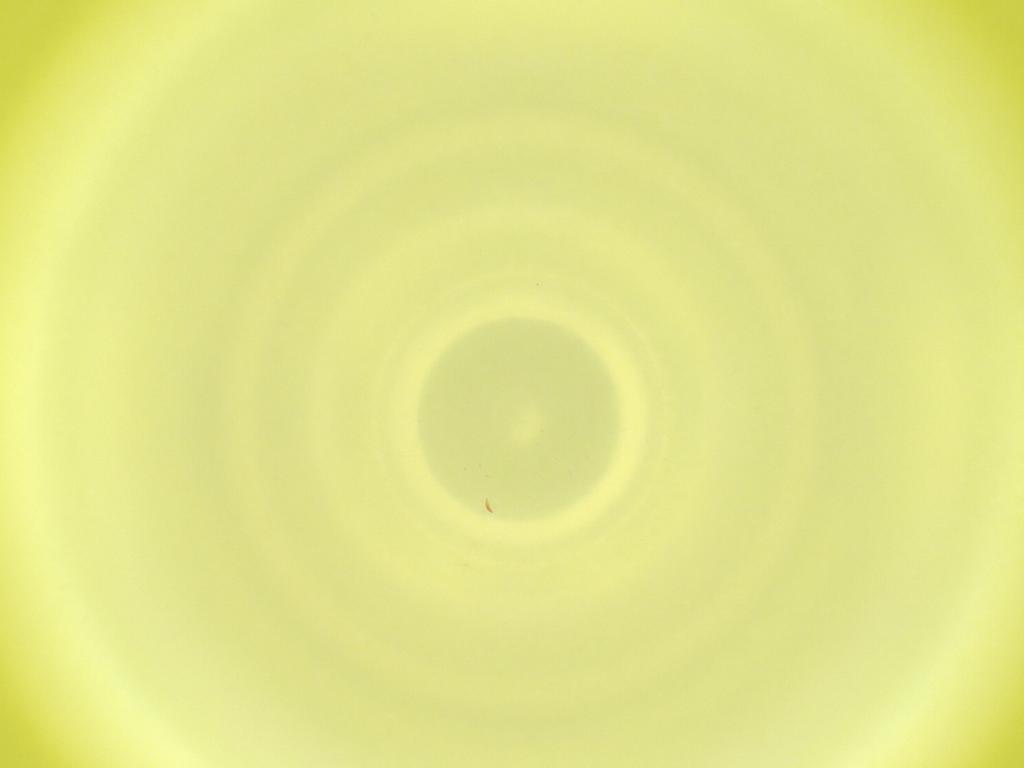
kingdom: Animalia
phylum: Arthropoda
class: Insecta
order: Diptera
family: Cecidomyiidae
